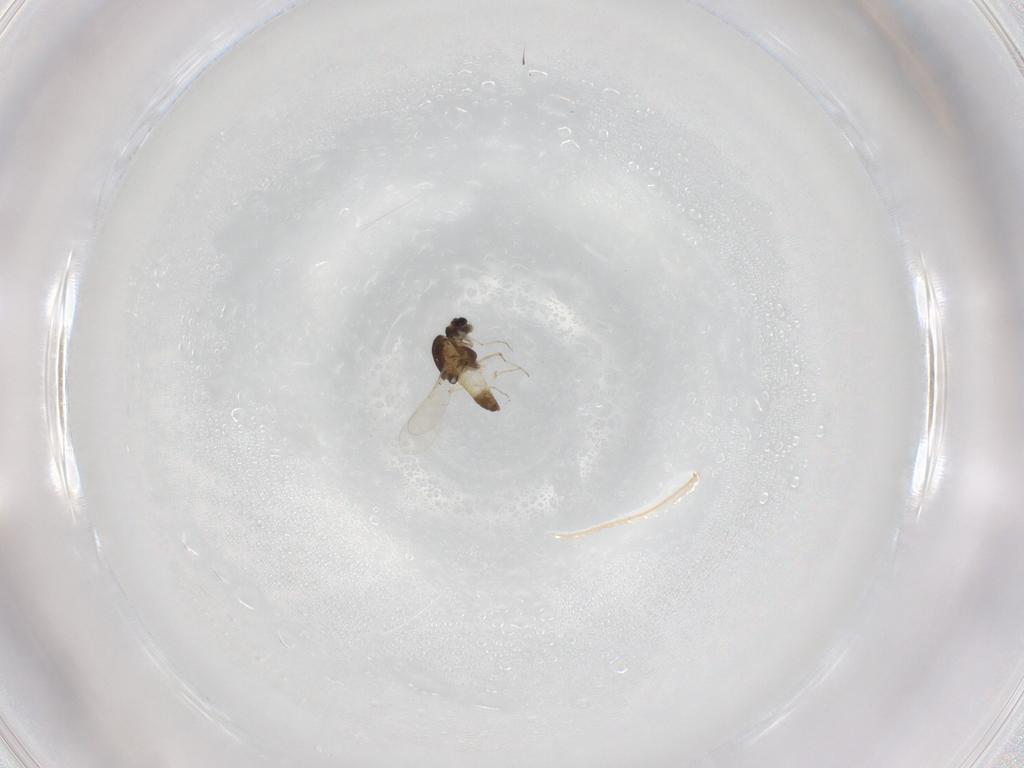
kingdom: Animalia
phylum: Arthropoda
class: Insecta
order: Diptera
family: Chironomidae
